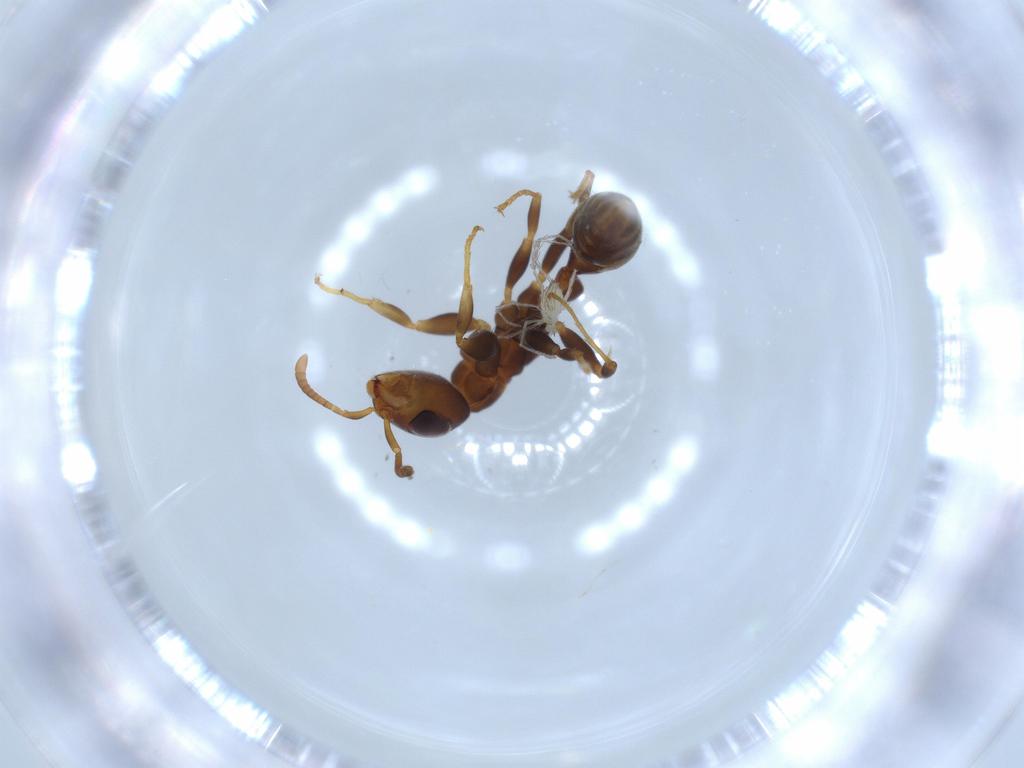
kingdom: Animalia
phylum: Arthropoda
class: Insecta
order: Hymenoptera
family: Formicidae
